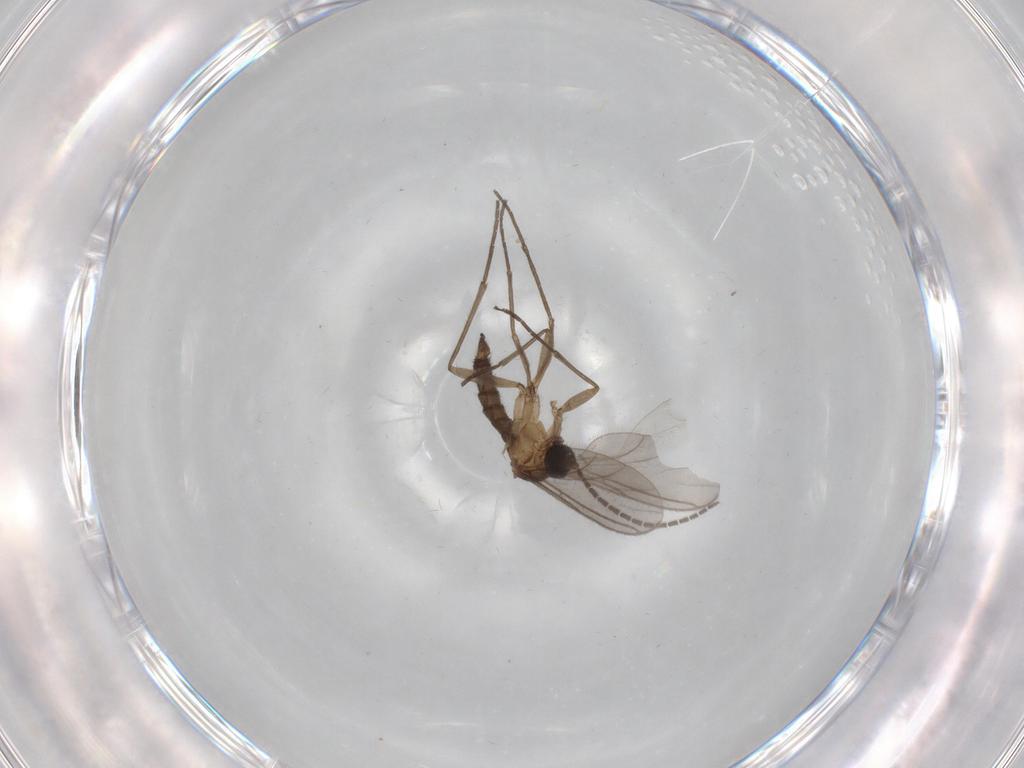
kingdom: Animalia
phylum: Arthropoda
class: Insecta
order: Diptera
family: Sciaridae
